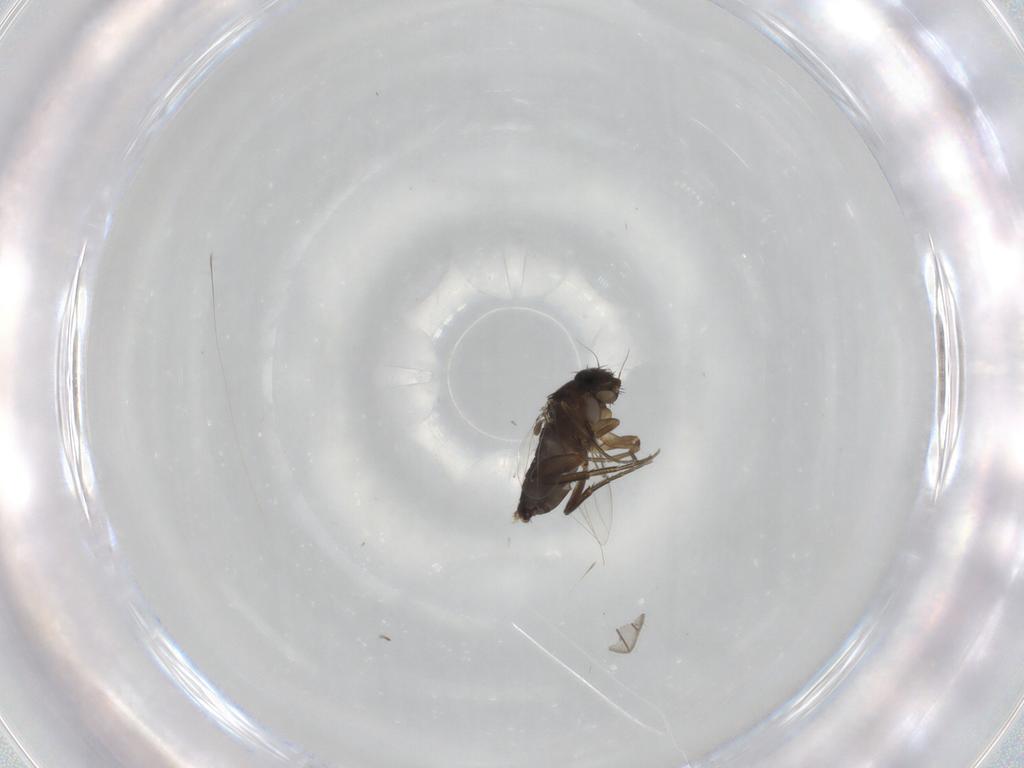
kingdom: Animalia
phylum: Arthropoda
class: Insecta
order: Diptera
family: Phoridae
